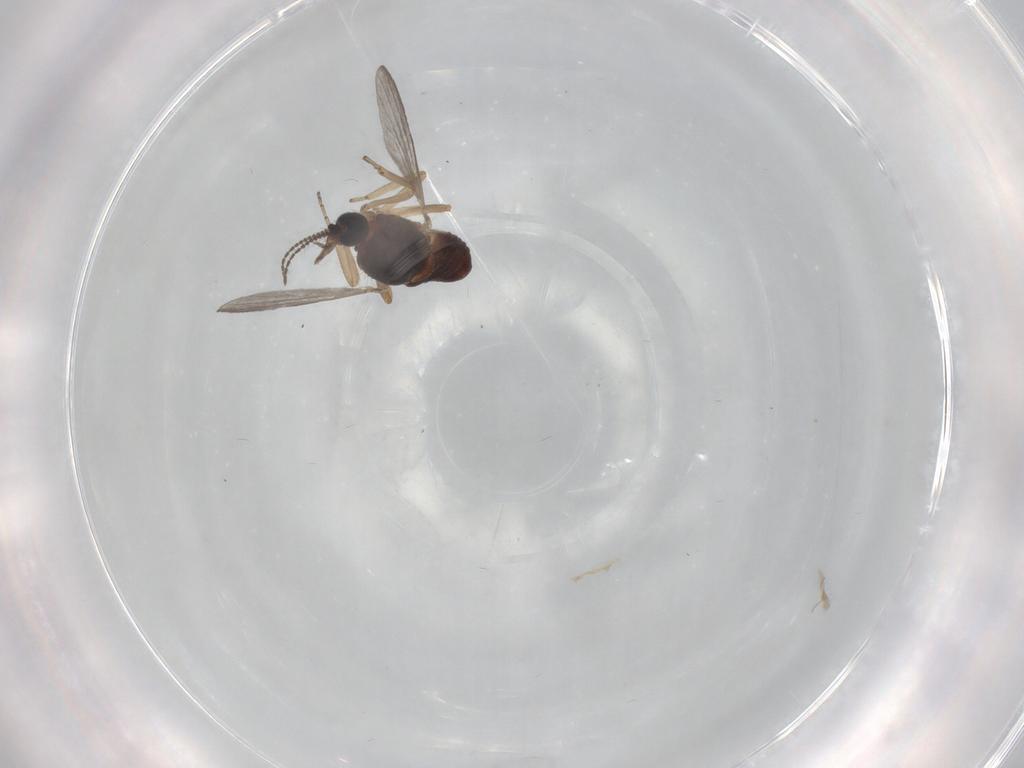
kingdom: Animalia
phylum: Arthropoda
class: Insecta
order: Diptera
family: Ceratopogonidae
